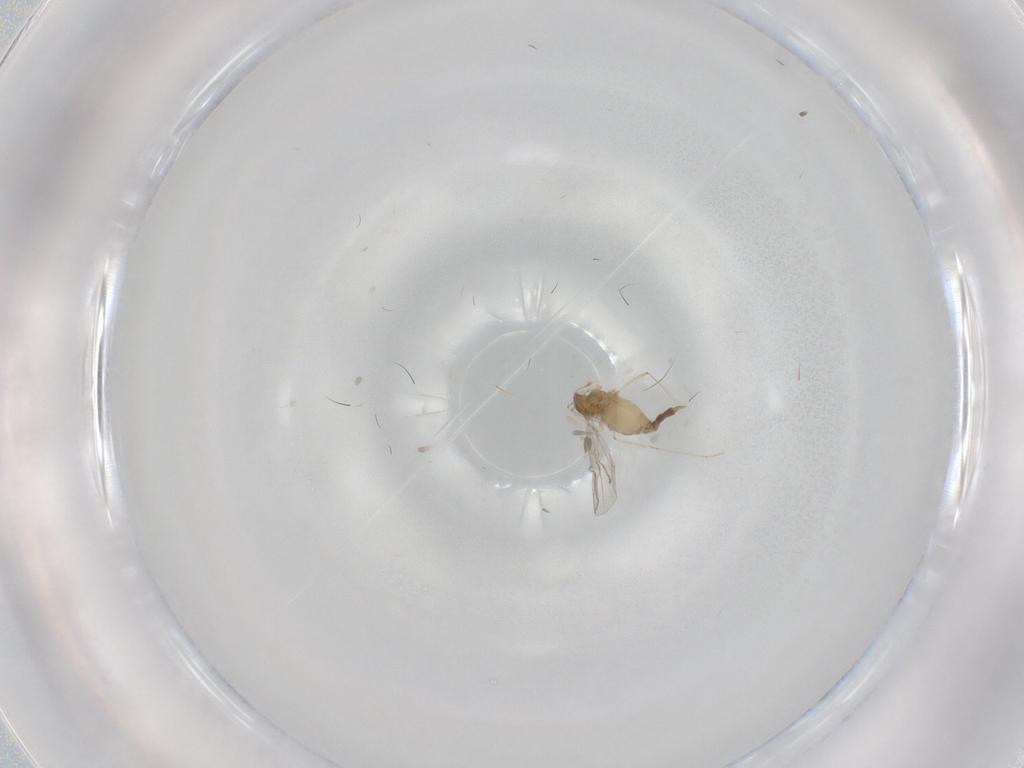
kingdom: Animalia
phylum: Arthropoda
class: Insecta
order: Diptera
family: Cecidomyiidae
